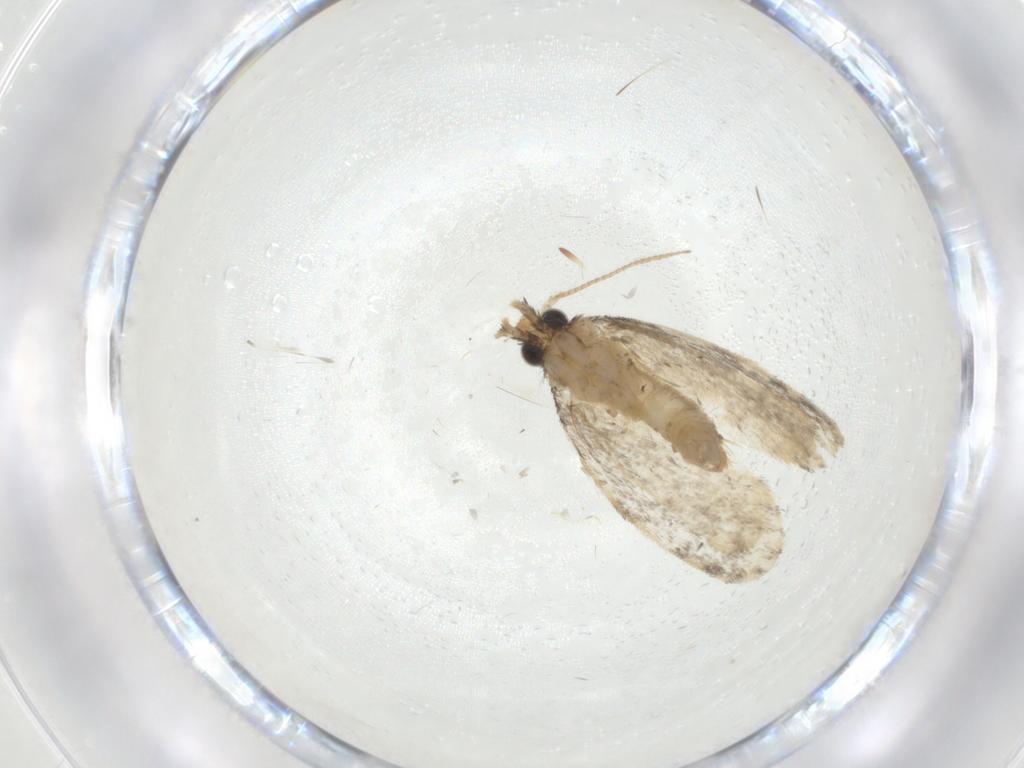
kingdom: Animalia
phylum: Arthropoda
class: Insecta
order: Lepidoptera
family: Psychidae
